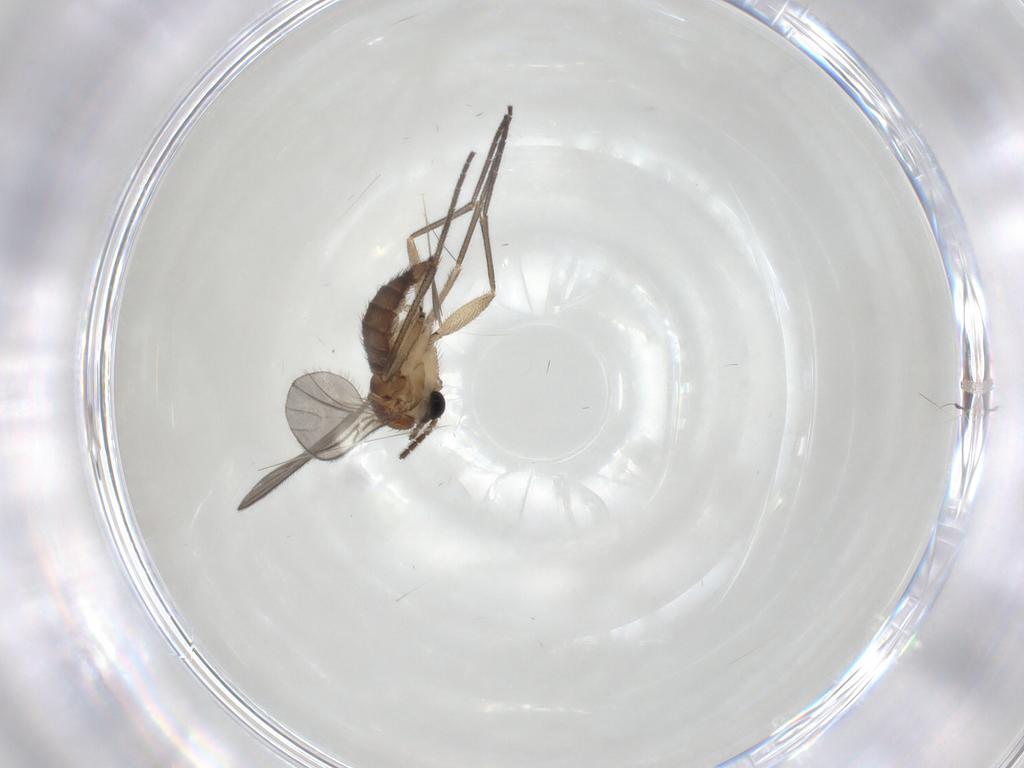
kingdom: Animalia
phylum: Arthropoda
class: Insecta
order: Diptera
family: Sciaridae
